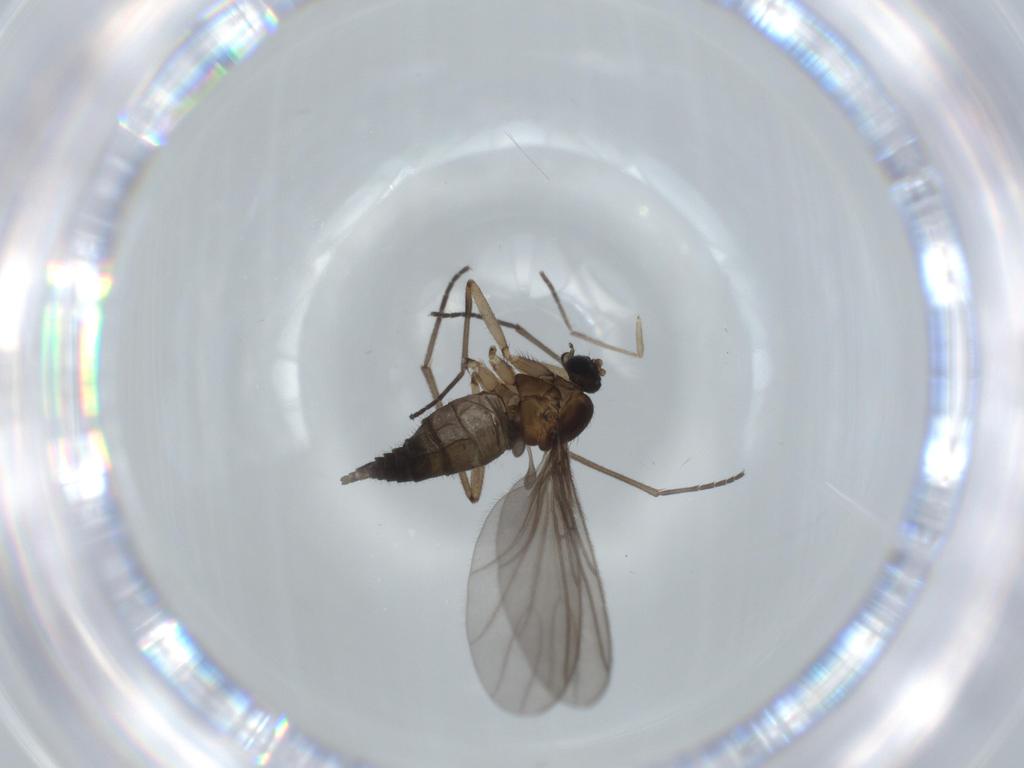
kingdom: Animalia
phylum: Arthropoda
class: Insecta
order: Diptera
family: Sciaridae
